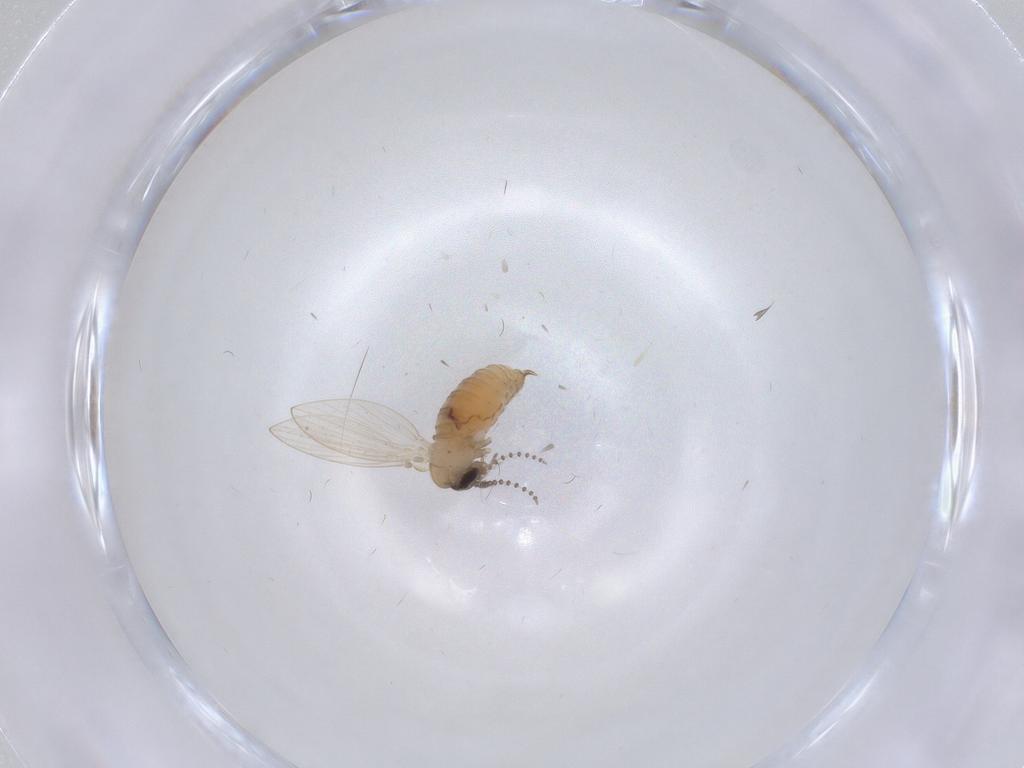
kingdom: Animalia
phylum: Arthropoda
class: Insecta
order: Diptera
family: Psychodidae
